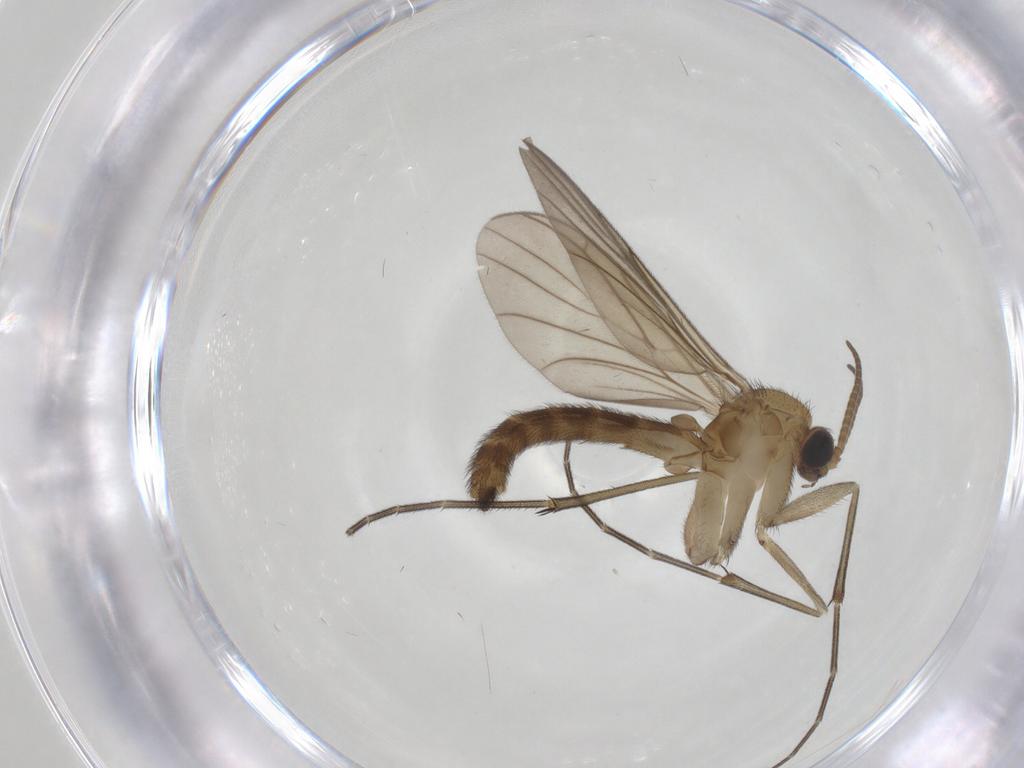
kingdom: Animalia
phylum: Arthropoda
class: Insecta
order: Diptera
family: Keroplatidae
